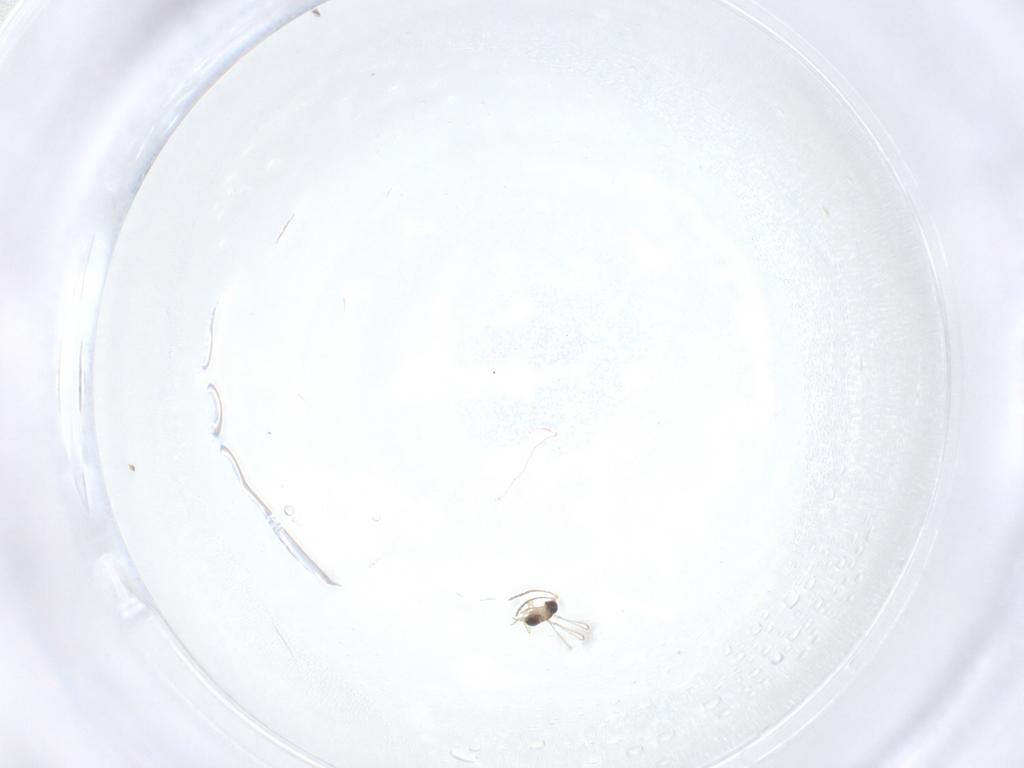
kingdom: Animalia
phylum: Arthropoda
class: Insecta
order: Hymenoptera
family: Mymaridae
